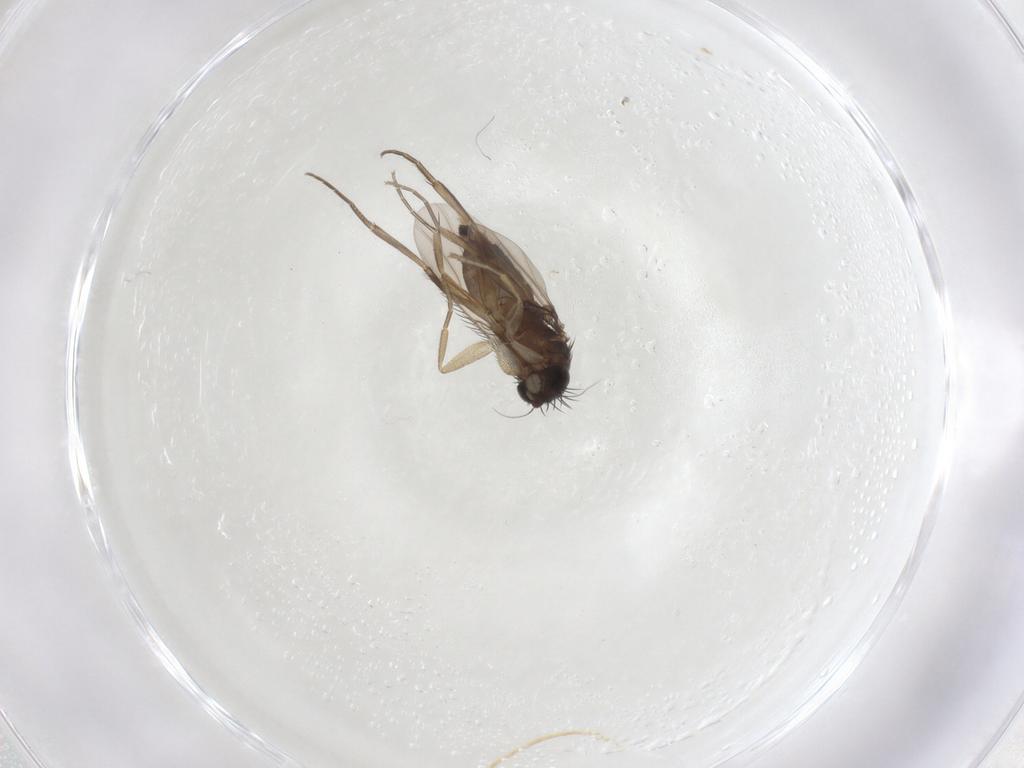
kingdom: Animalia
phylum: Arthropoda
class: Insecta
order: Diptera
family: Phoridae
